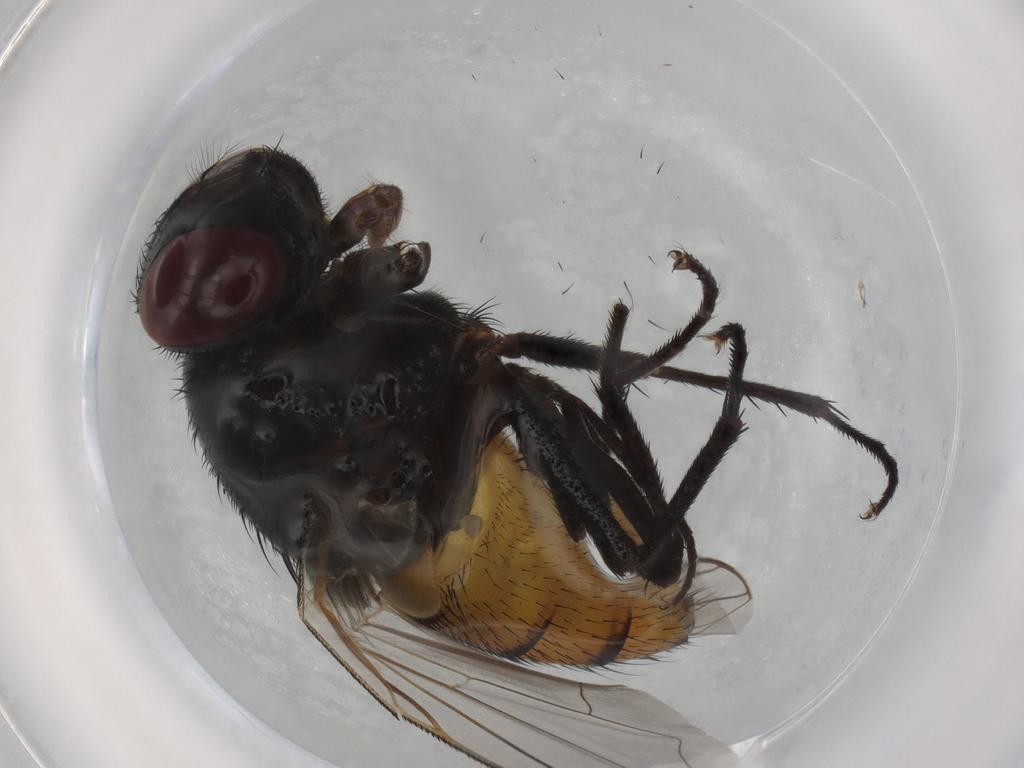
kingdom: Animalia
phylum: Arthropoda
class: Insecta
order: Diptera
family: Muscidae
